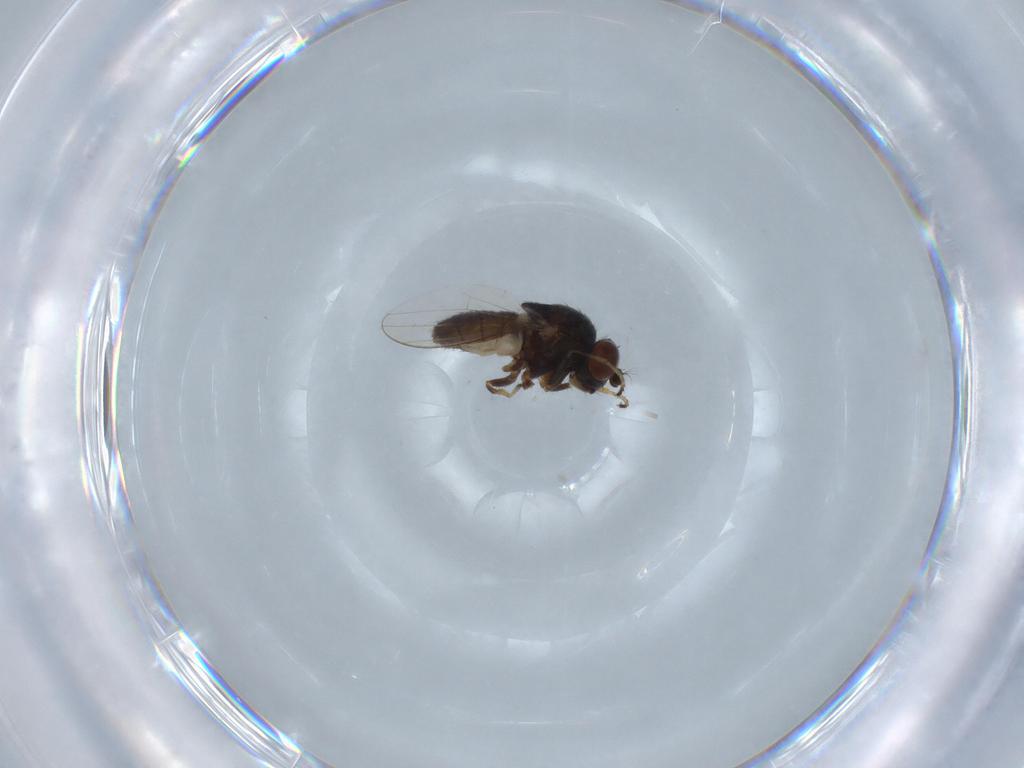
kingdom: Animalia
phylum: Arthropoda
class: Insecta
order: Diptera
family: Ephydridae
